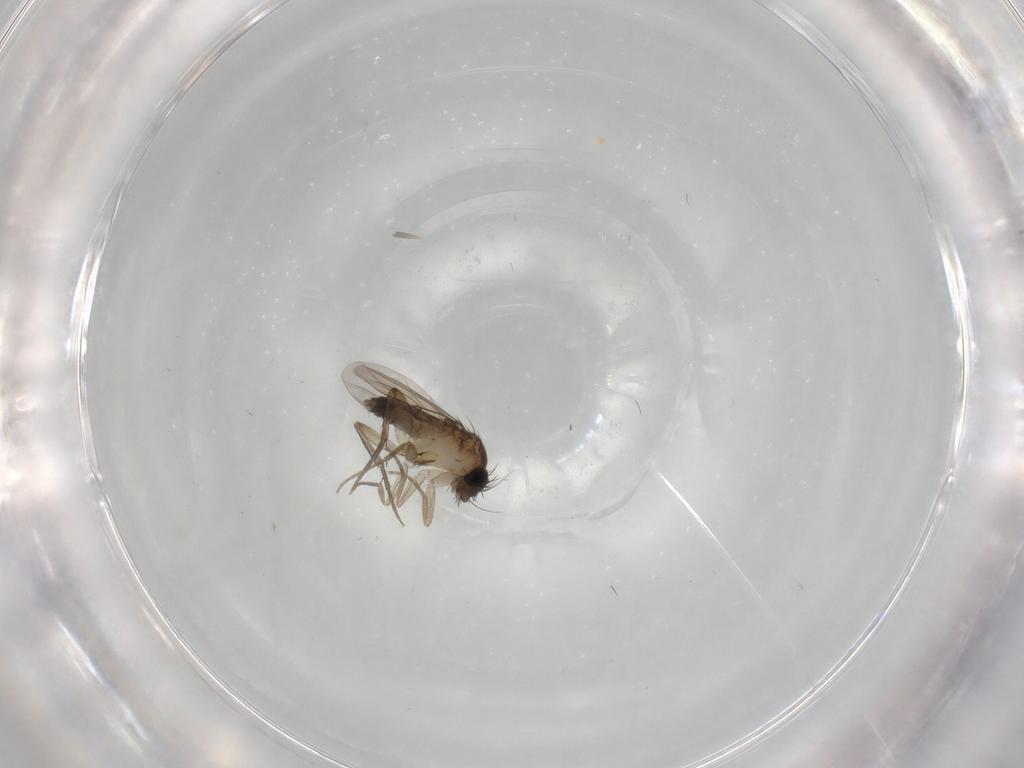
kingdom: Animalia
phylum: Arthropoda
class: Insecta
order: Diptera
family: Phoridae
